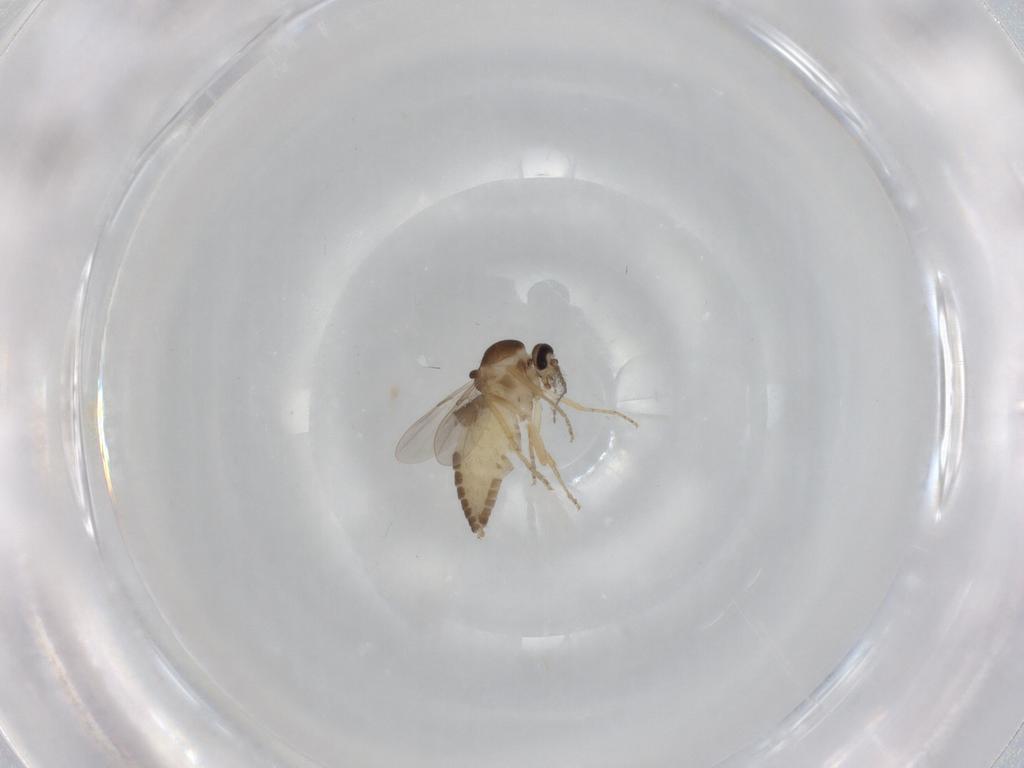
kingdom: Animalia
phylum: Arthropoda
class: Insecta
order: Diptera
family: Ceratopogonidae
